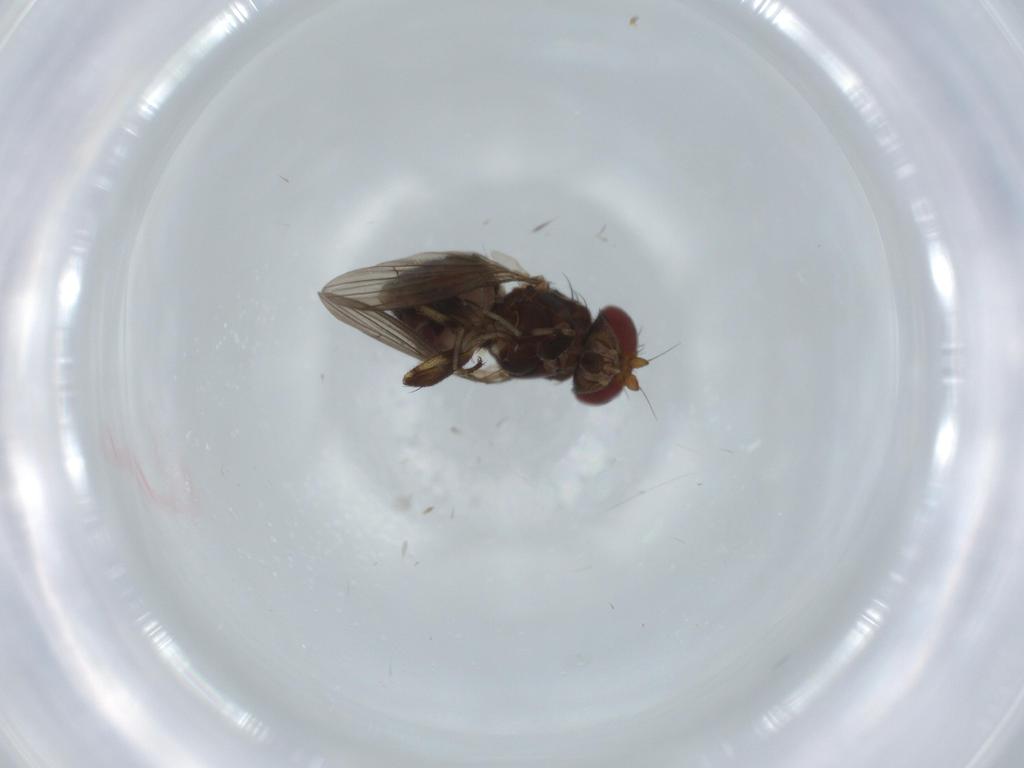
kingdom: Animalia
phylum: Arthropoda
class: Insecta
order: Diptera
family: Heleomyzidae
